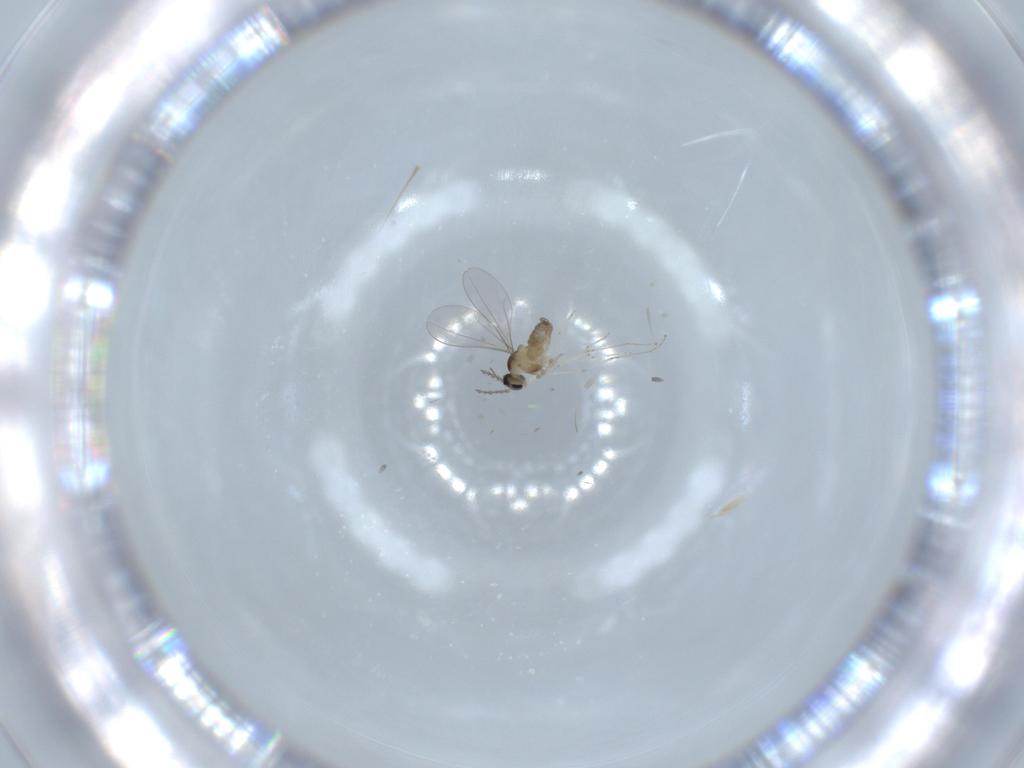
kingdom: Animalia
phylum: Arthropoda
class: Insecta
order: Diptera
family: Cecidomyiidae
